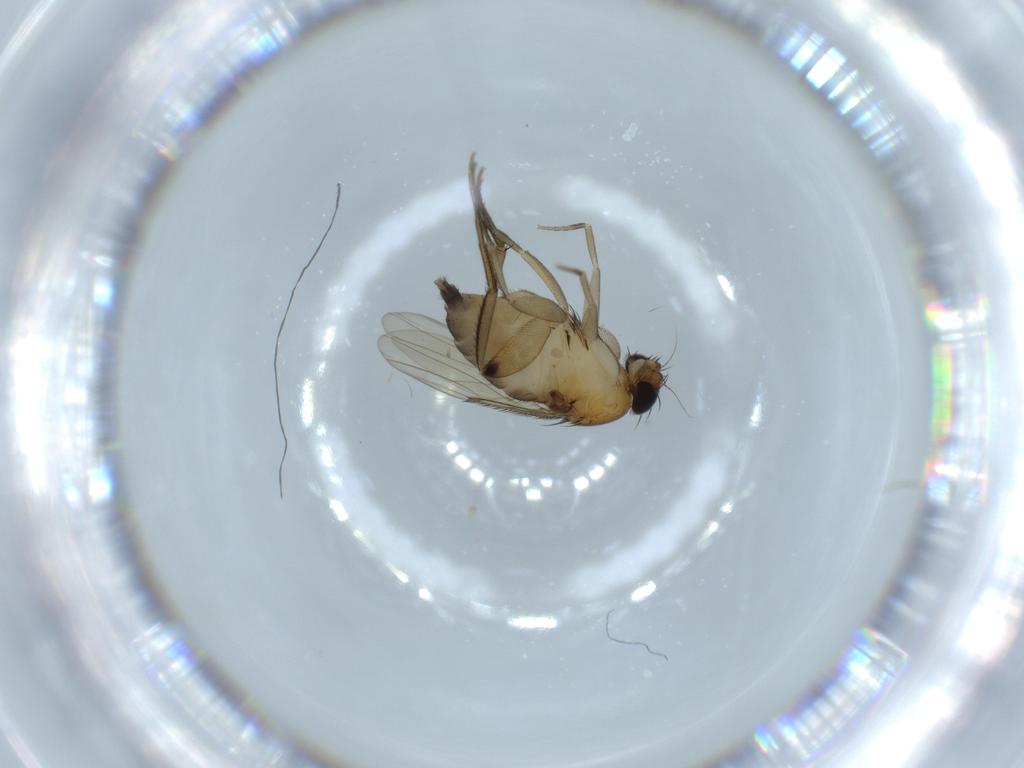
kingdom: Animalia
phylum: Arthropoda
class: Insecta
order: Diptera
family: Phoridae
